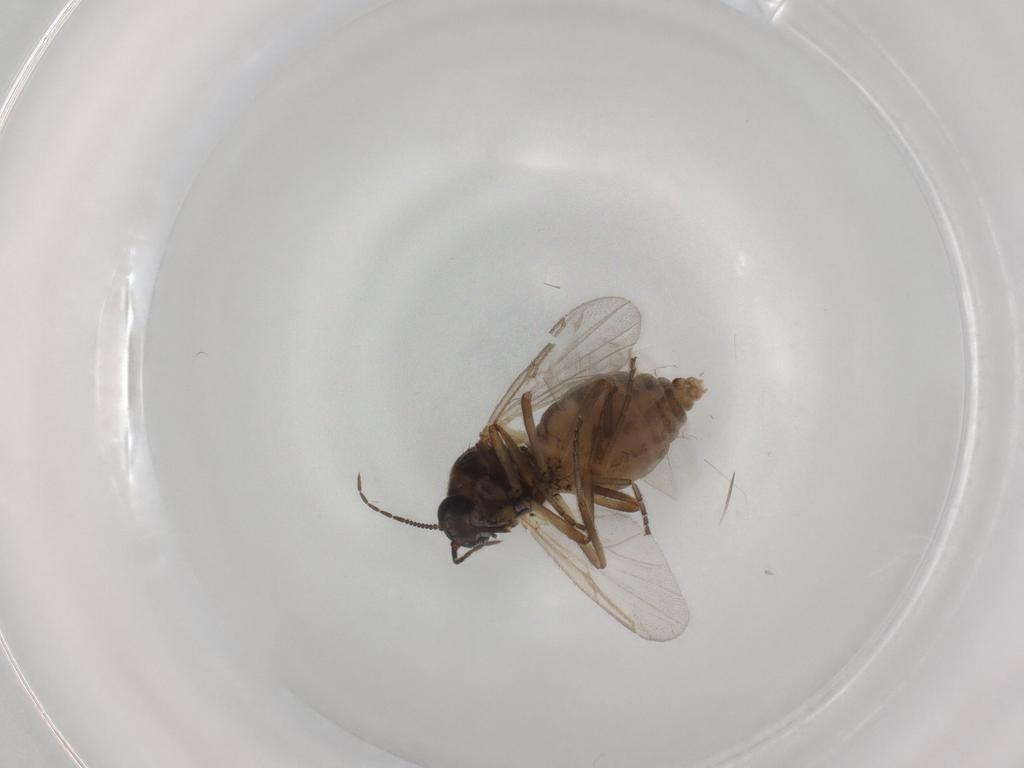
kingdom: Animalia
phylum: Arthropoda
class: Insecta
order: Diptera
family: Ceratopogonidae
